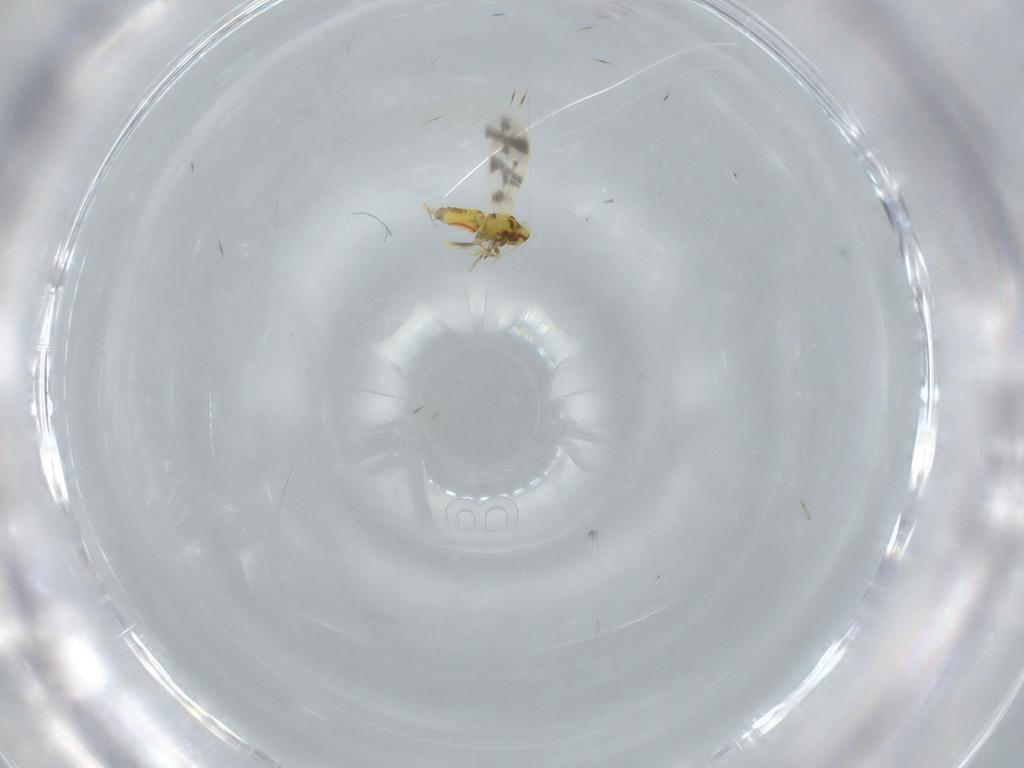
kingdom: Animalia
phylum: Arthropoda
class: Insecta
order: Hemiptera
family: Aleyrodidae
